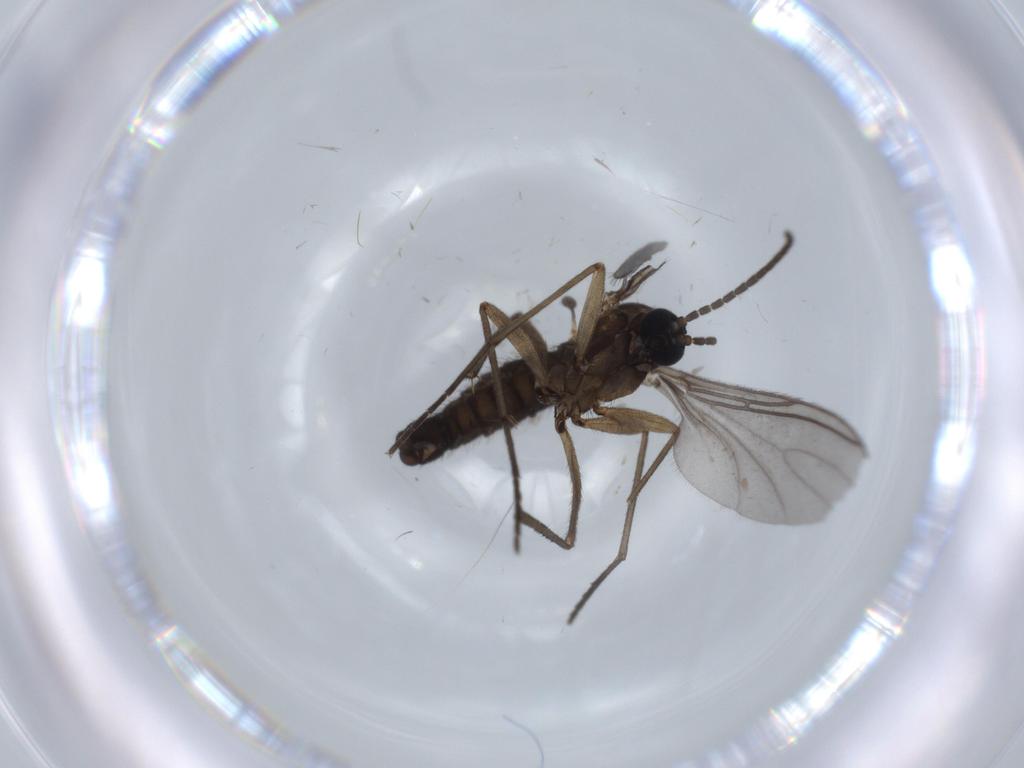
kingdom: Animalia
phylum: Arthropoda
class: Insecta
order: Diptera
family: Sciaridae
